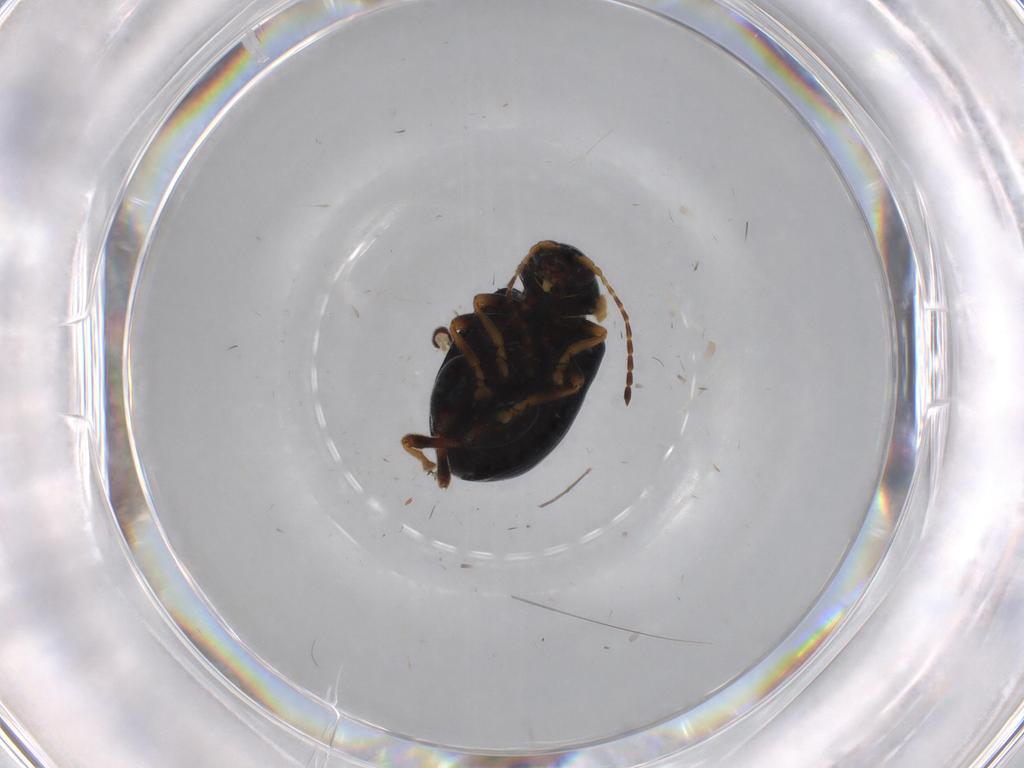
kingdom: Animalia
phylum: Arthropoda
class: Insecta
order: Coleoptera
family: Chrysomelidae
